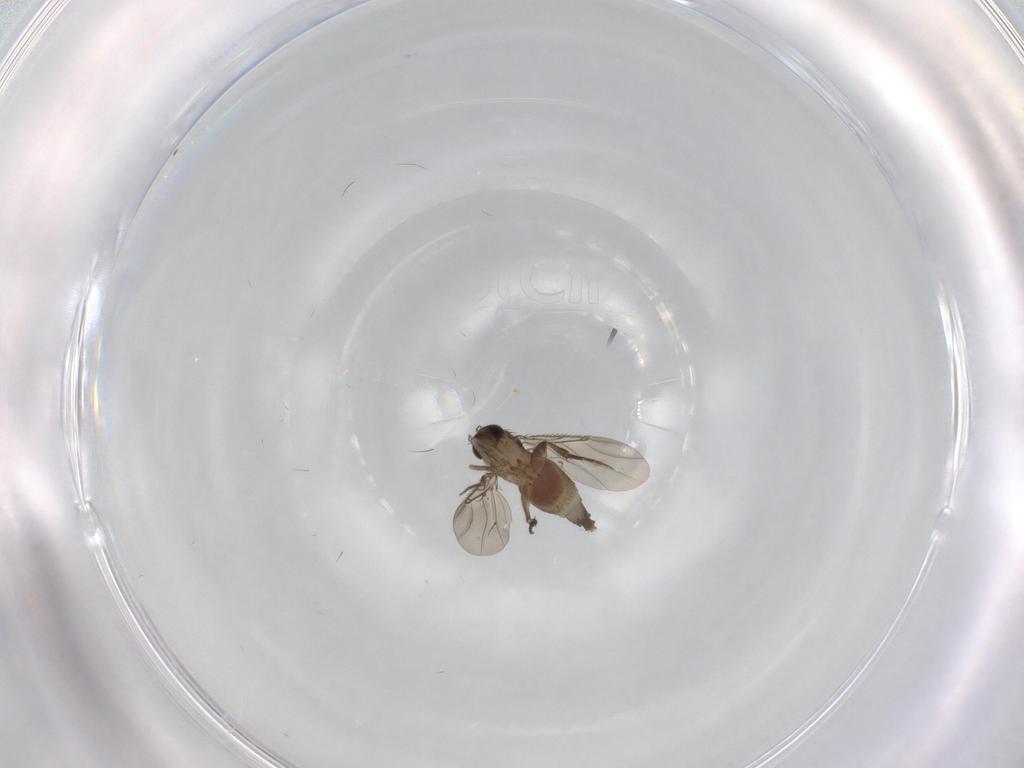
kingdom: Animalia
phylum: Arthropoda
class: Insecta
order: Diptera
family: Phoridae
